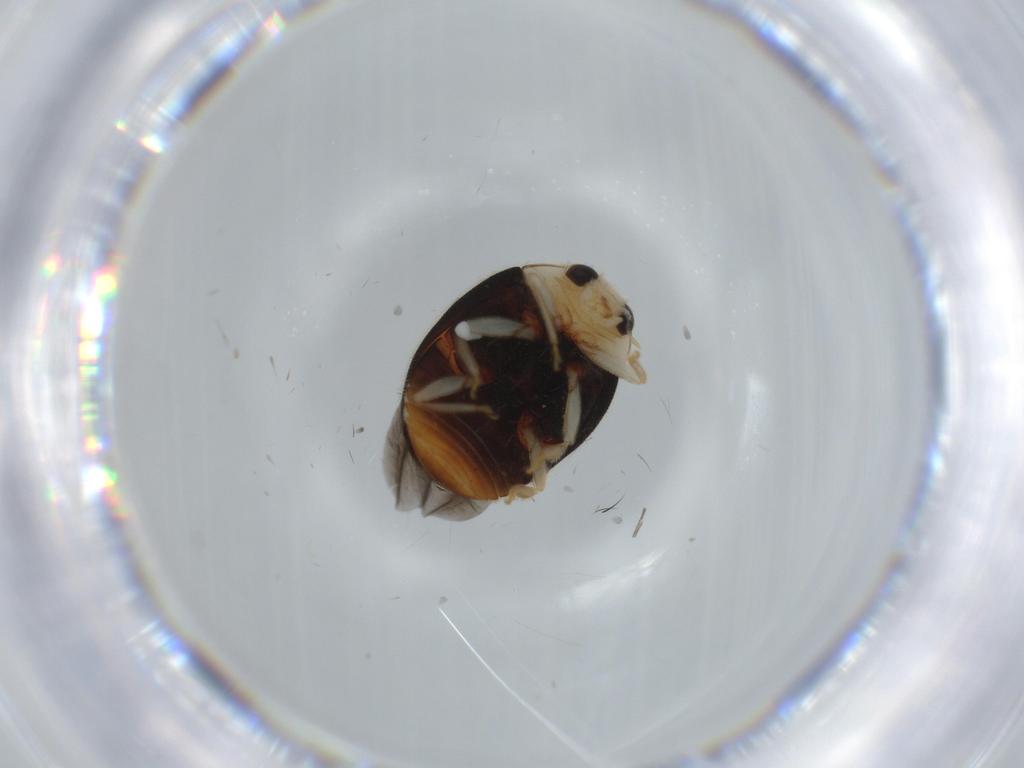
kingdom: Animalia
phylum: Arthropoda
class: Insecta
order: Coleoptera
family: Coccinellidae
